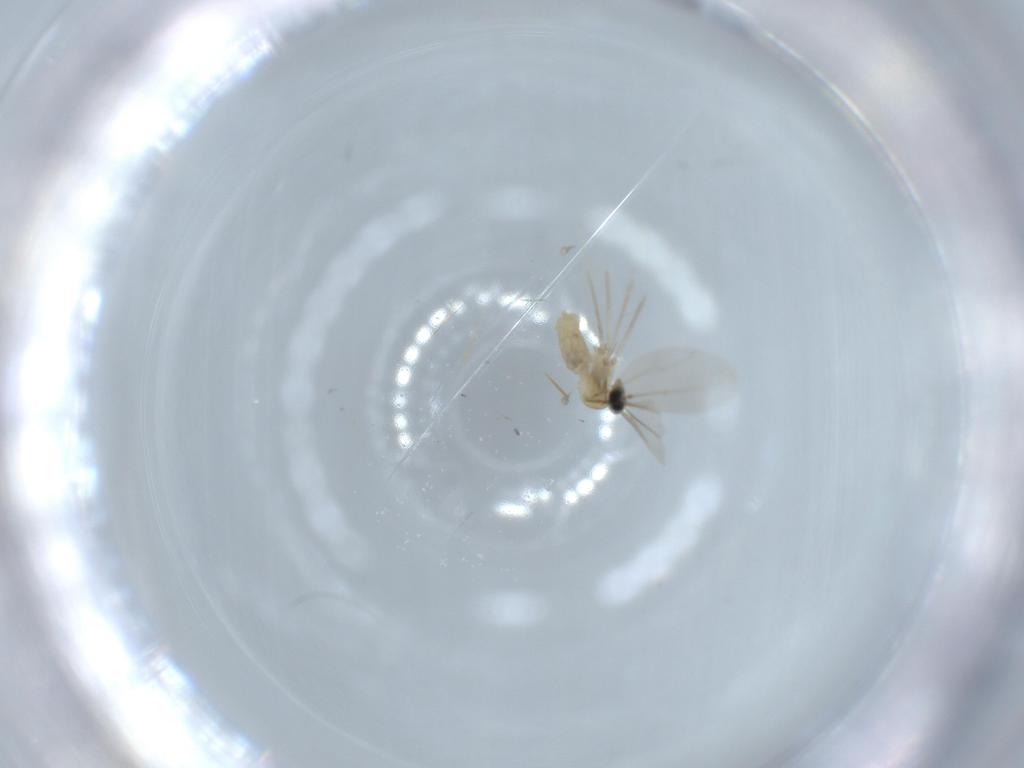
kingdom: Animalia
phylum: Arthropoda
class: Insecta
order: Diptera
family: Cecidomyiidae
